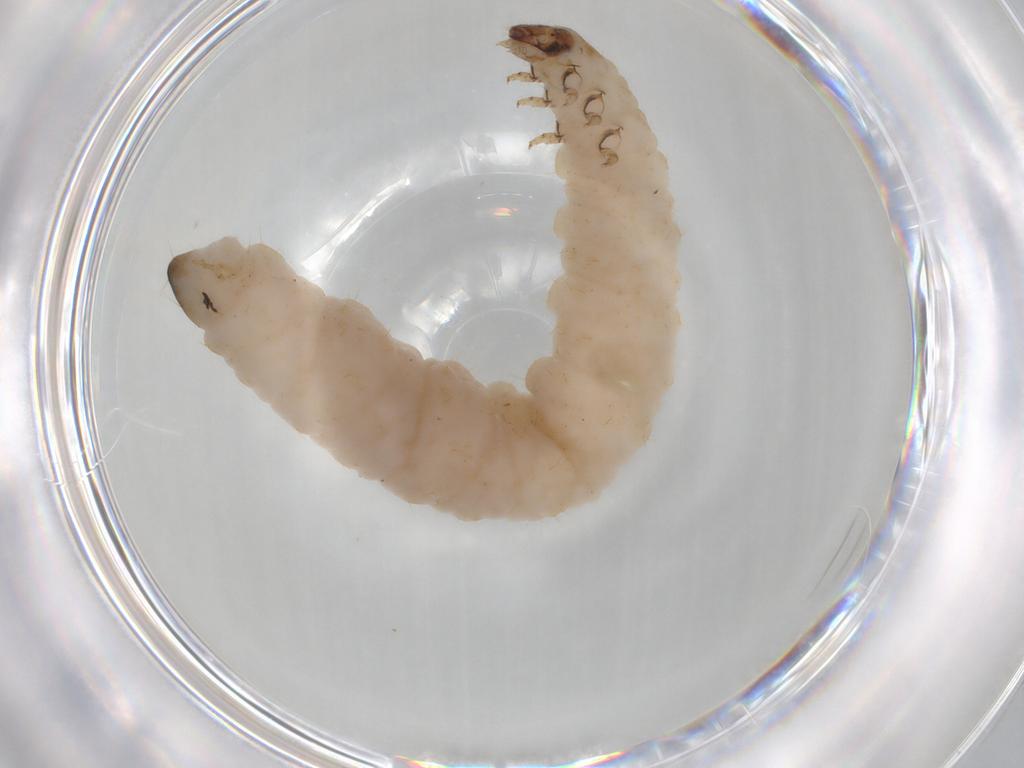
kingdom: Animalia
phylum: Arthropoda
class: Insecta
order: Coleoptera
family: Chrysomelidae
